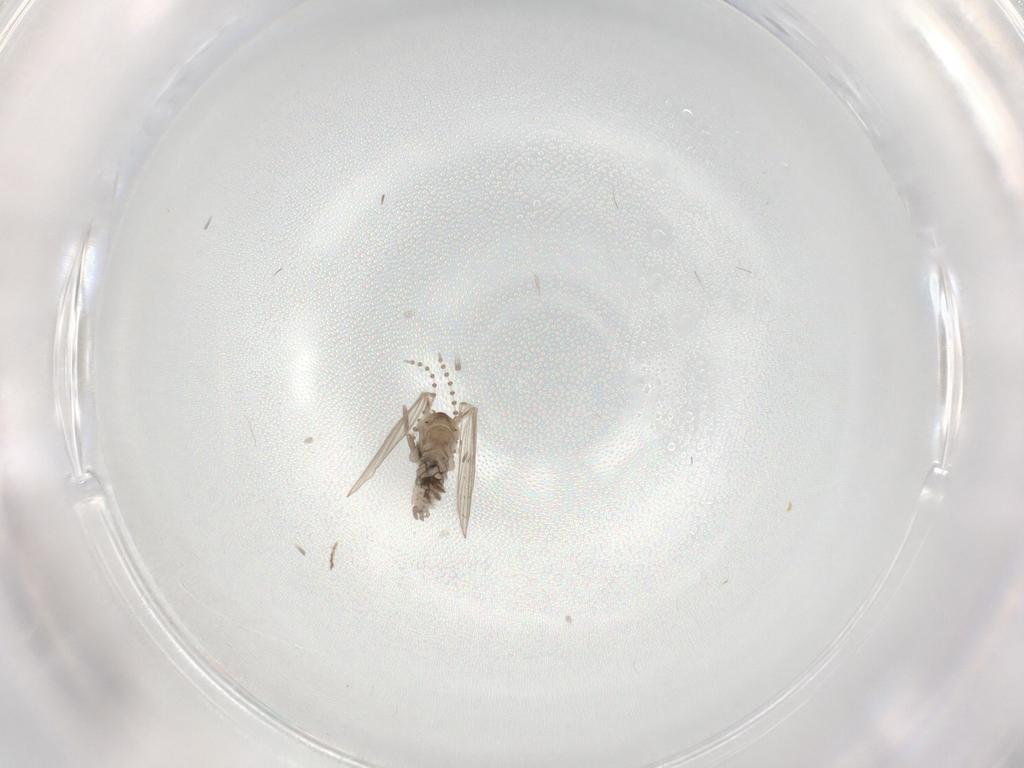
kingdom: Animalia
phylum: Arthropoda
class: Insecta
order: Diptera
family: Psychodidae
